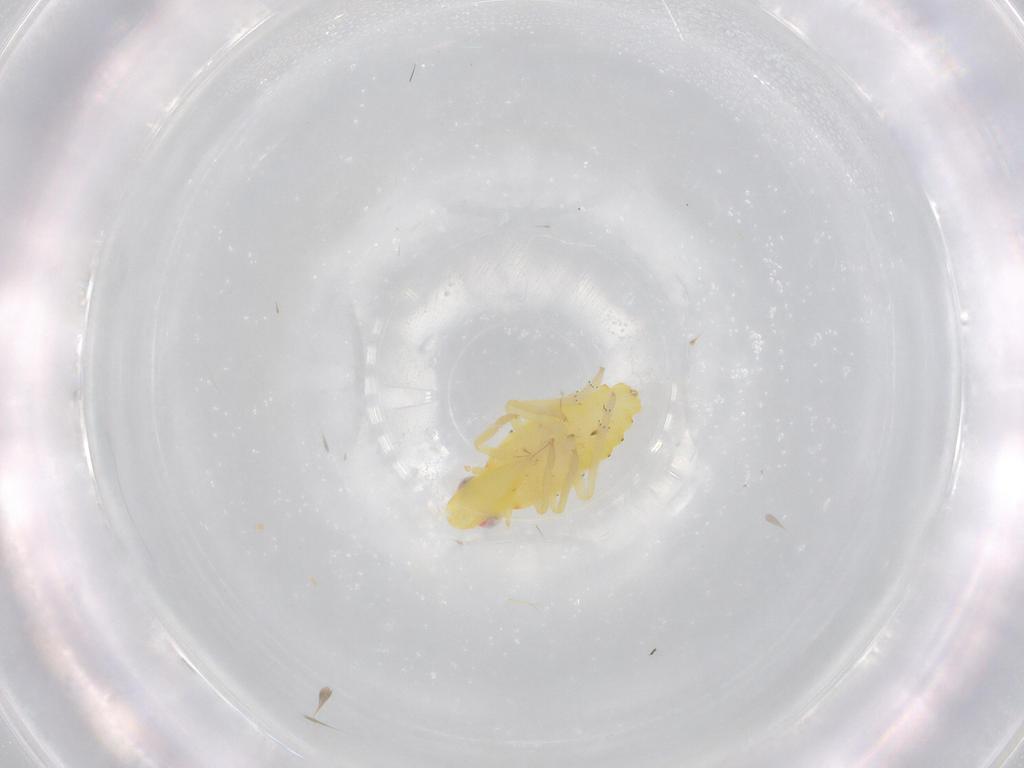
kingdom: Animalia
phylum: Arthropoda
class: Insecta
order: Hemiptera
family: Tropiduchidae
